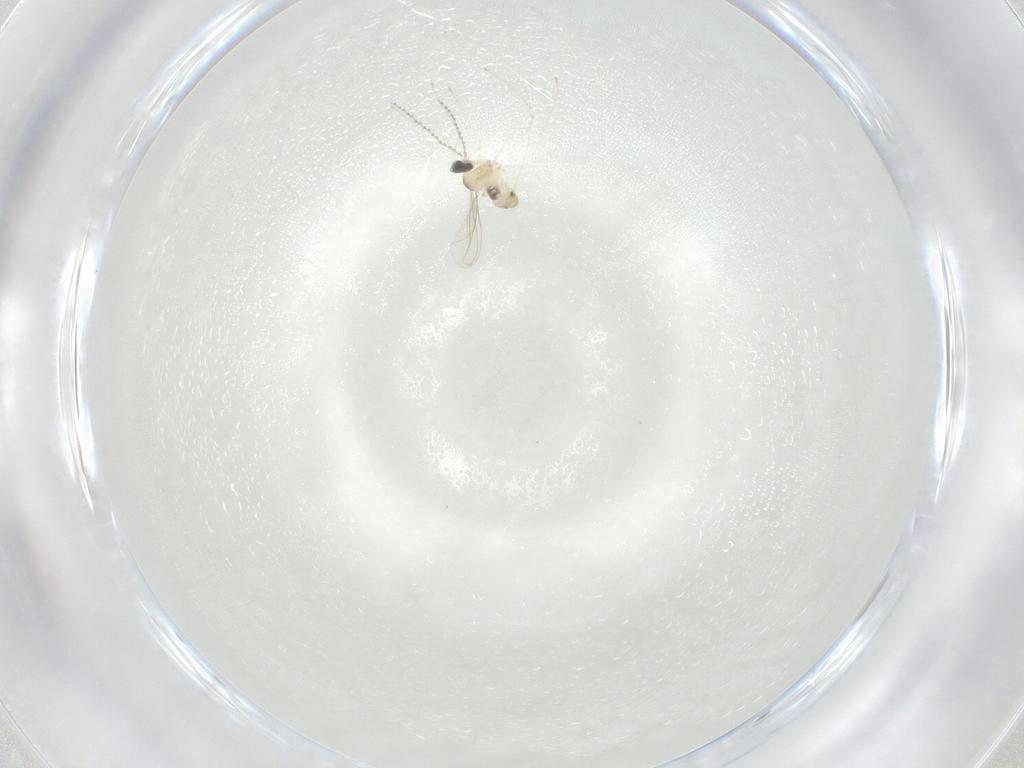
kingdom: Animalia
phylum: Arthropoda
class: Insecta
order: Diptera
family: Cecidomyiidae
